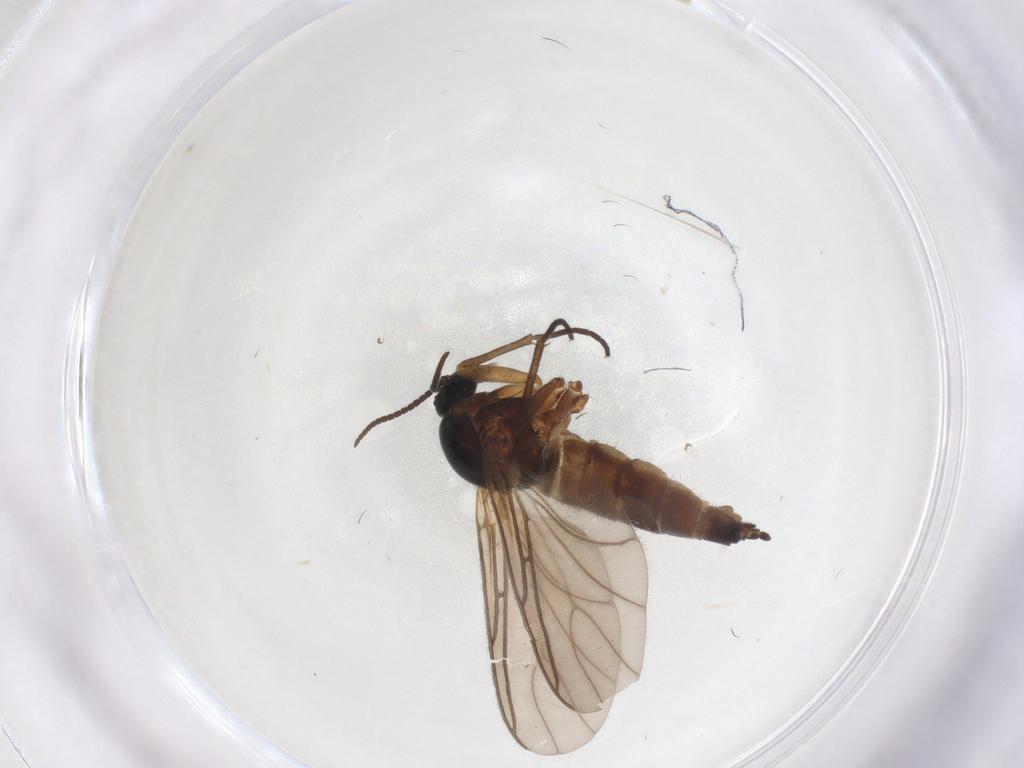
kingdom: Animalia
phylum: Arthropoda
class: Insecta
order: Diptera
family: Sciaridae
